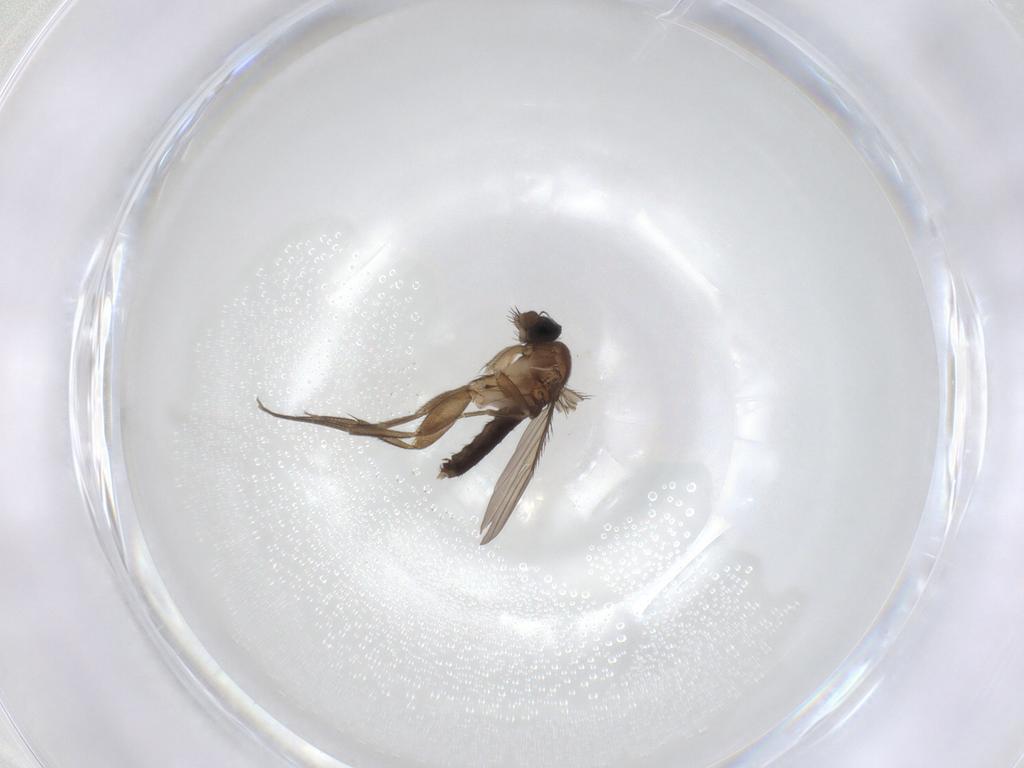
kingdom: Animalia
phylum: Arthropoda
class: Insecta
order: Diptera
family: Phoridae
